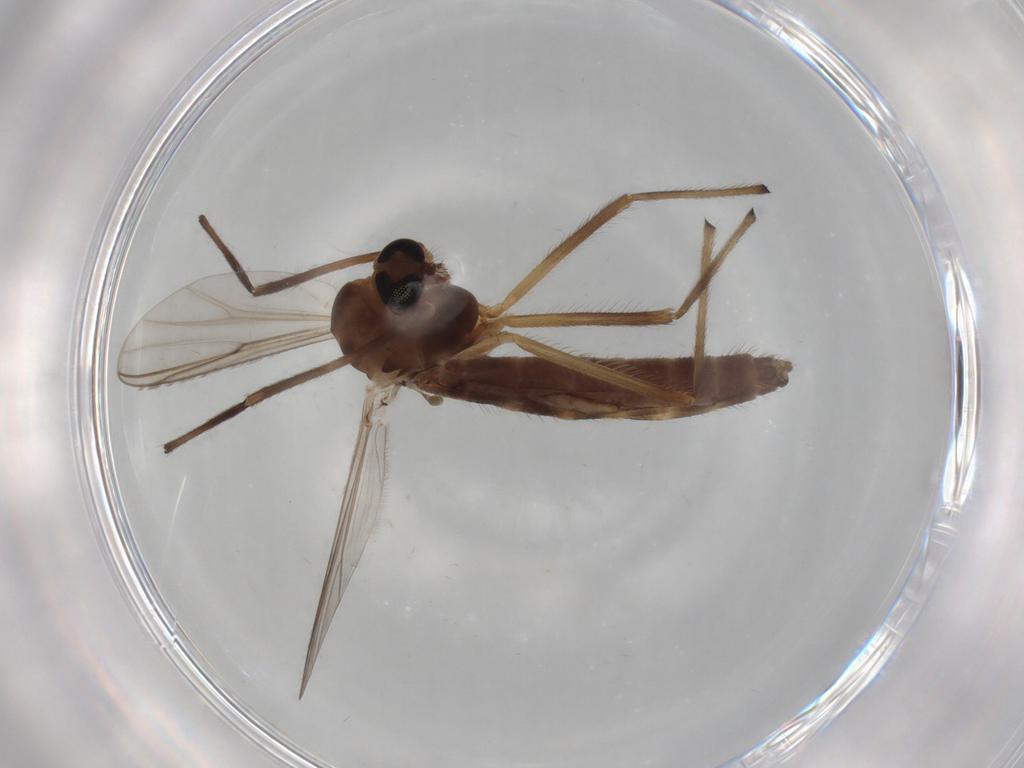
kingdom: Animalia
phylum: Arthropoda
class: Insecta
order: Diptera
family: Chironomidae
